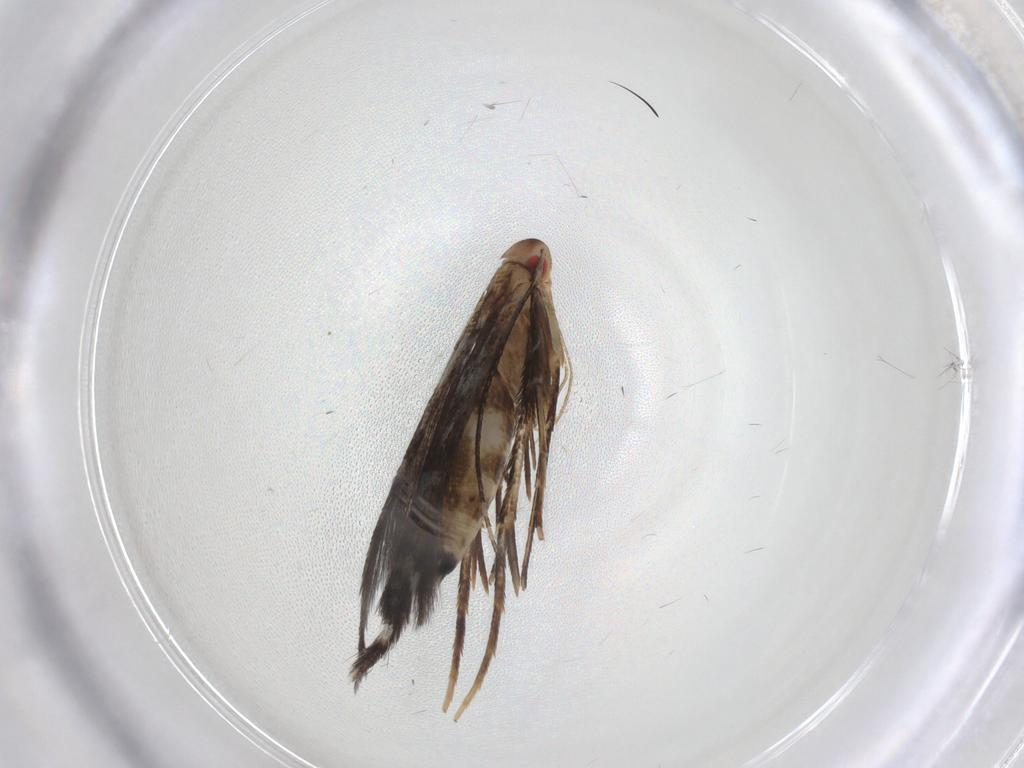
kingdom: Animalia
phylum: Arthropoda
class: Insecta
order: Lepidoptera
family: Cosmopterigidae
